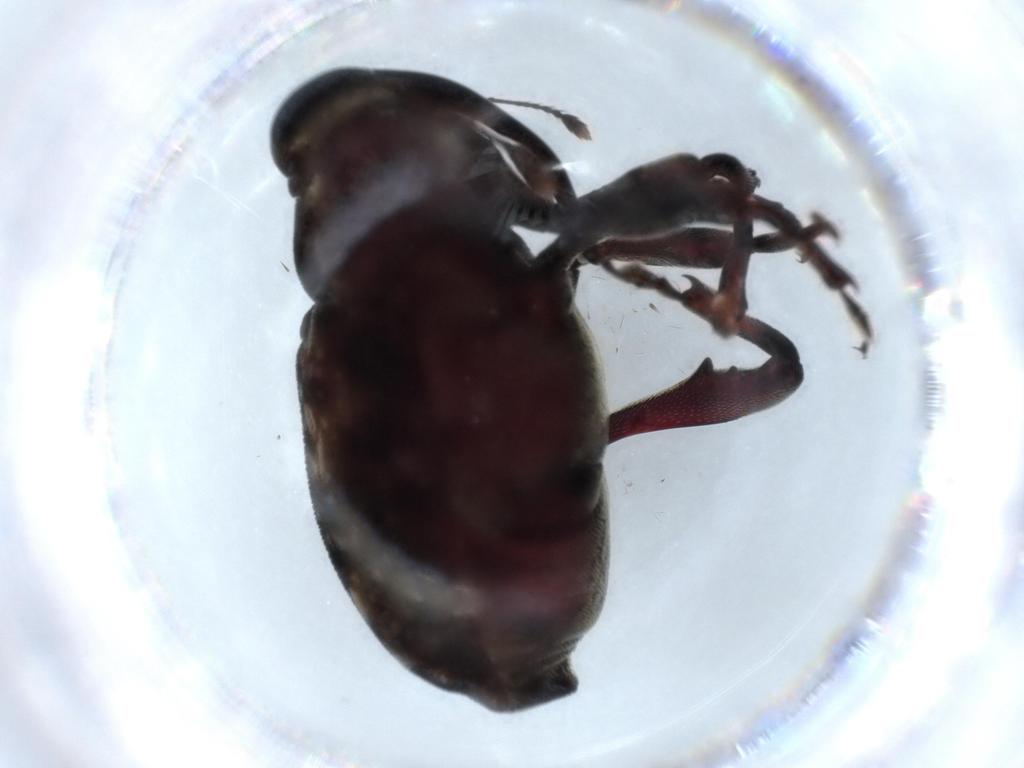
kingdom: Animalia
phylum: Arthropoda
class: Insecta
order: Coleoptera
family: Curculionidae
